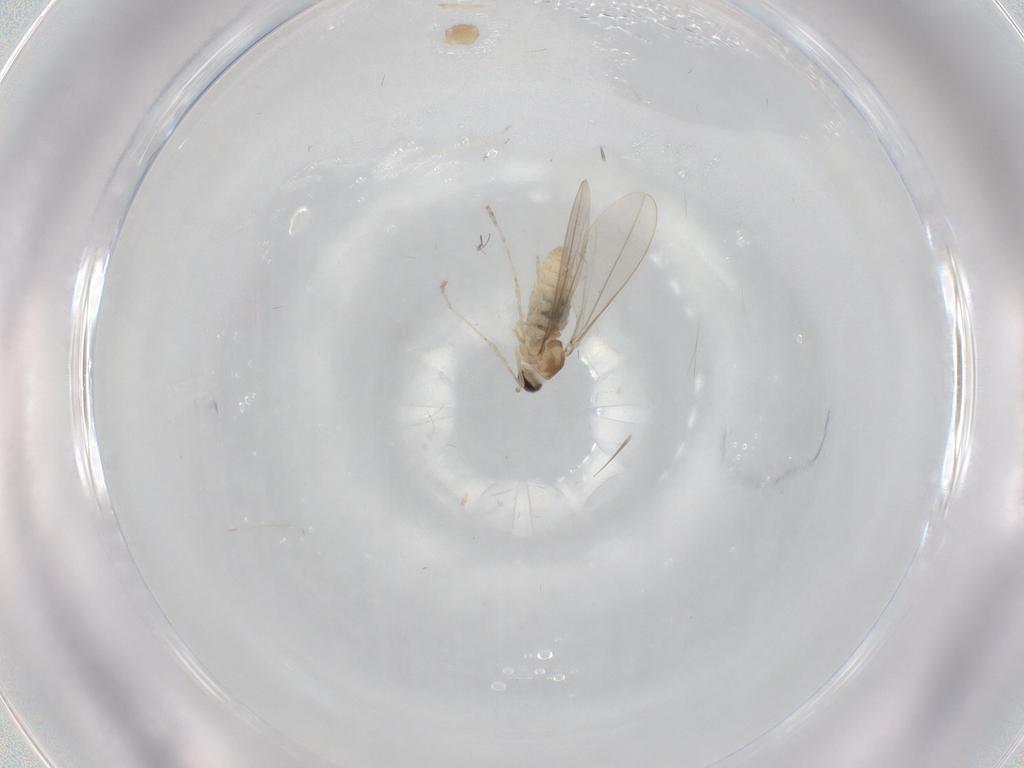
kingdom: Animalia
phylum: Arthropoda
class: Insecta
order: Diptera
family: Cecidomyiidae
